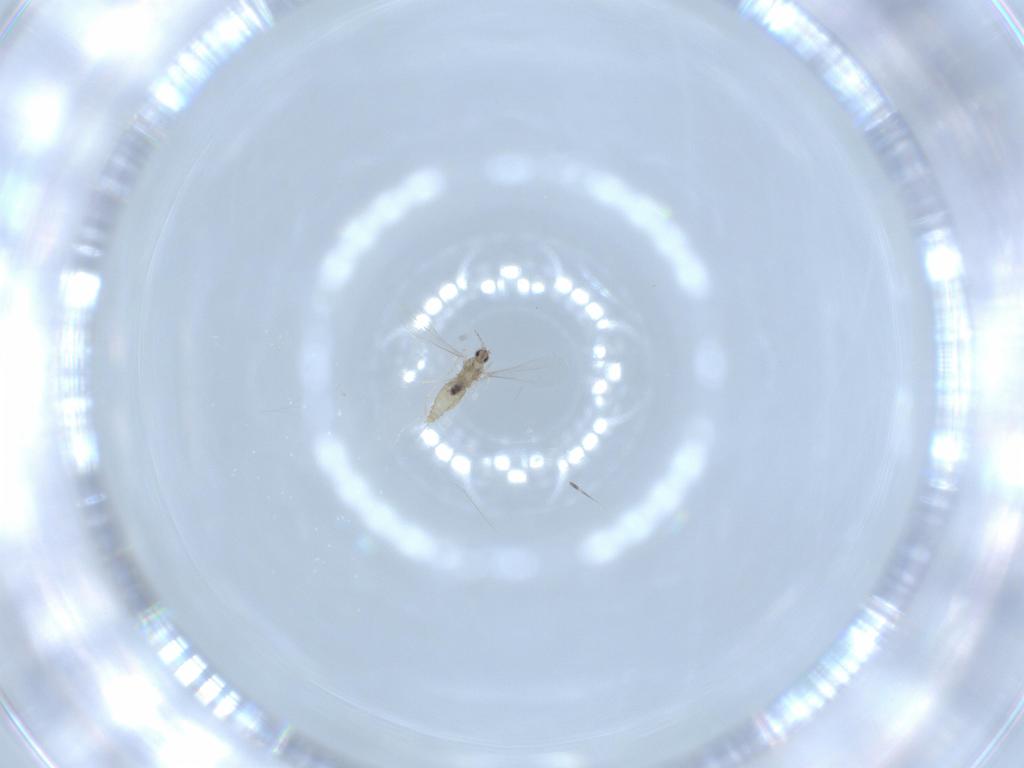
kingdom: Animalia
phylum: Arthropoda
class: Insecta
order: Diptera
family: Cecidomyiidae
